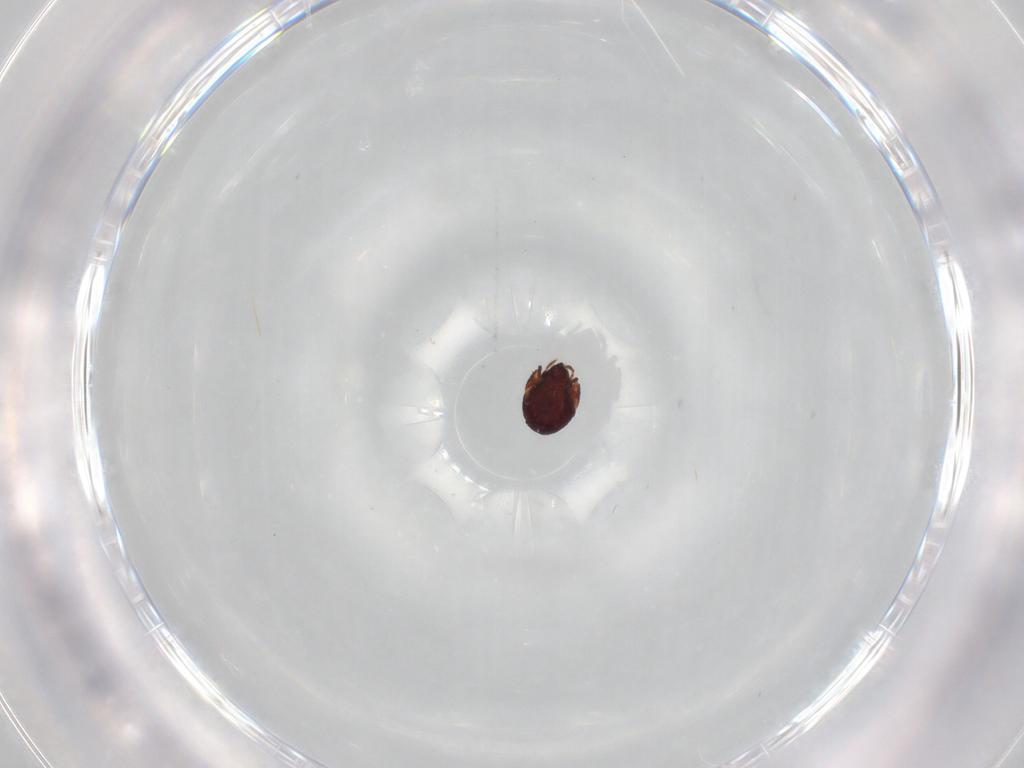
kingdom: Animalia
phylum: Arthropoda
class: Arachnida
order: Sarcoptiformes
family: Humerobatidae
